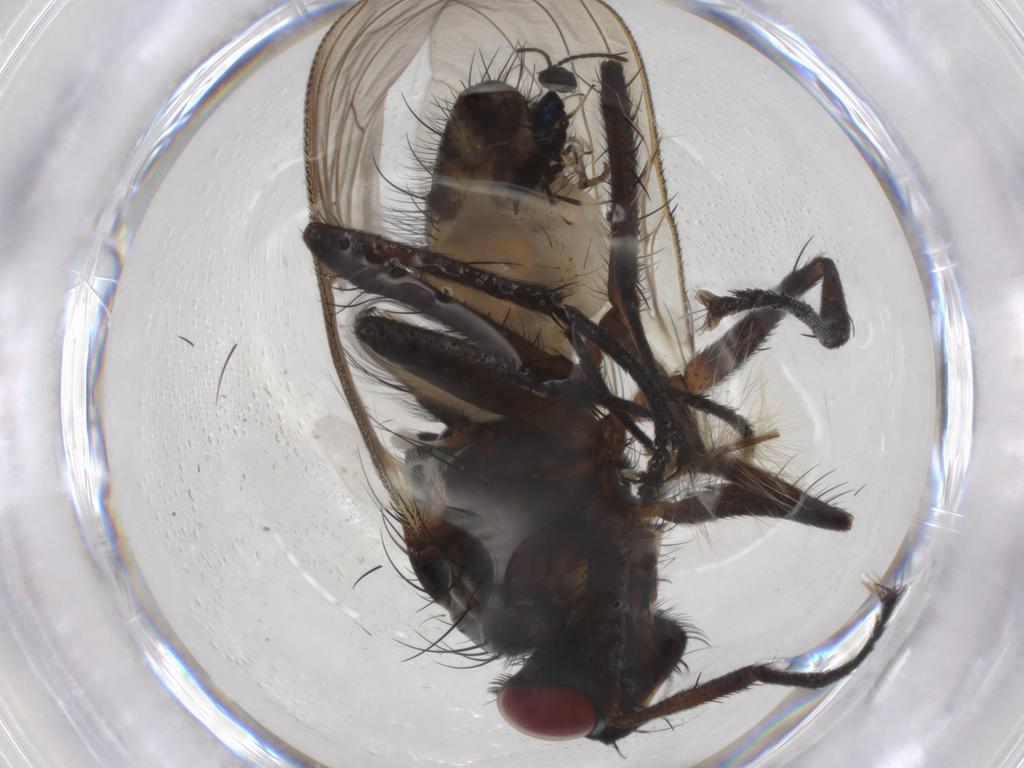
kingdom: Animalia
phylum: Arthropoda
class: Insecta
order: Diptera
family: Anthomyiidae
